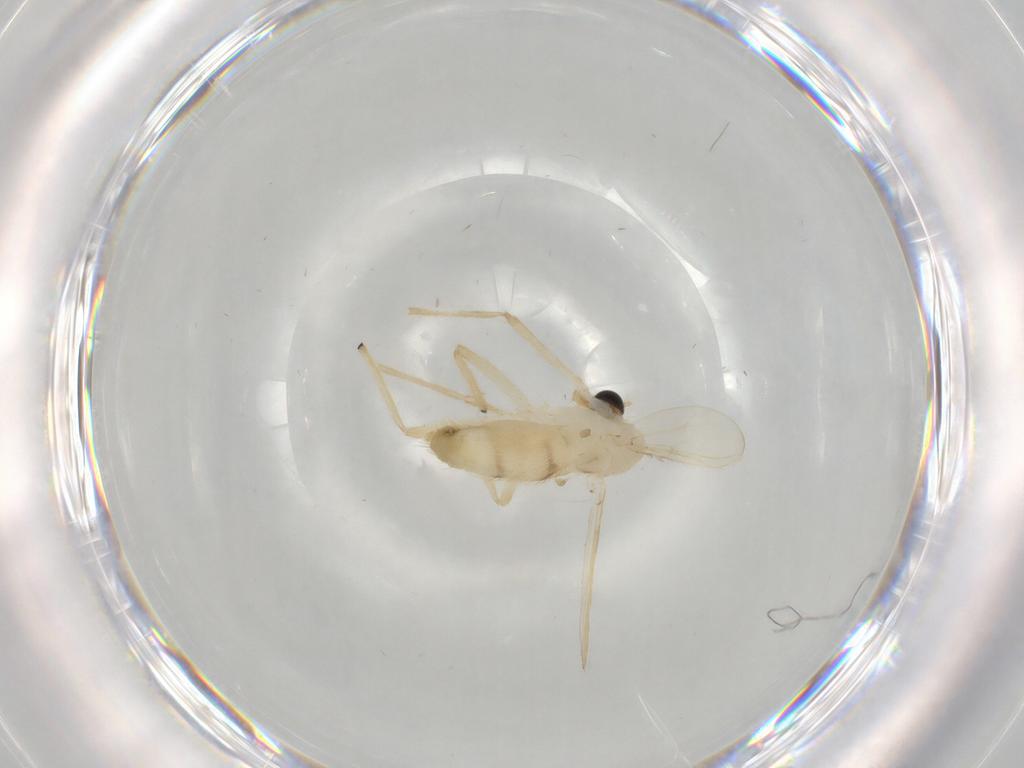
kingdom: Animalia
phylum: Arthropoda
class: Insecta
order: Diptera
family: Chironomidae
